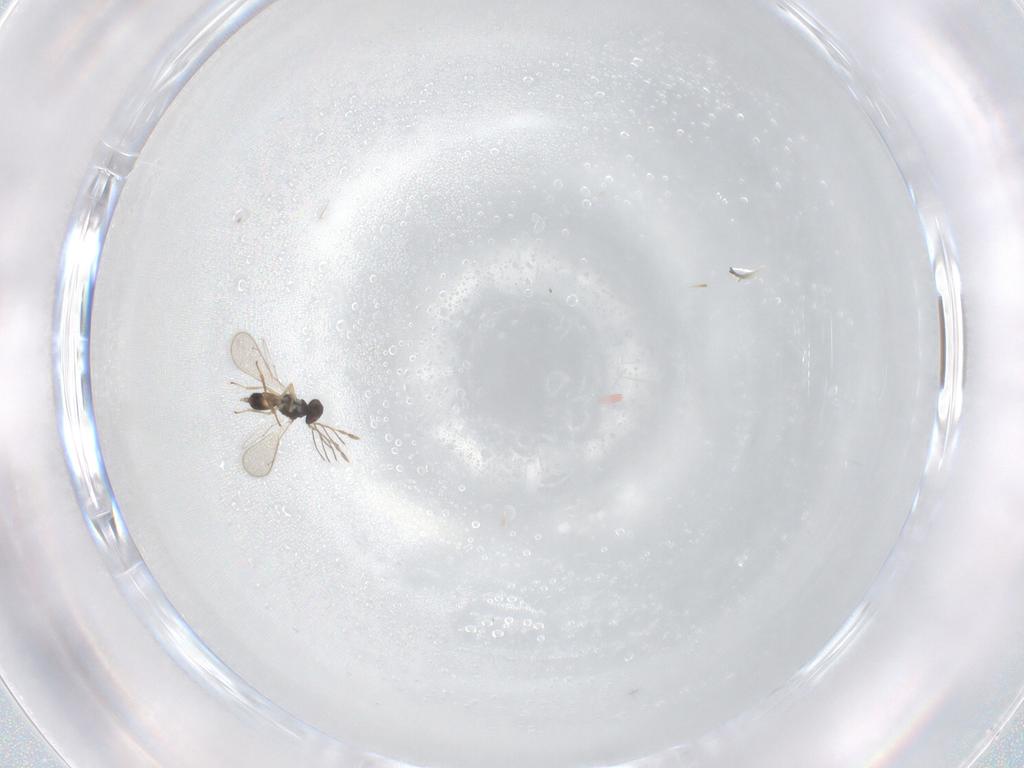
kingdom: Animalia
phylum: Arthropoda
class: Insecta
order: Hymenoptera
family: Eulophidae
